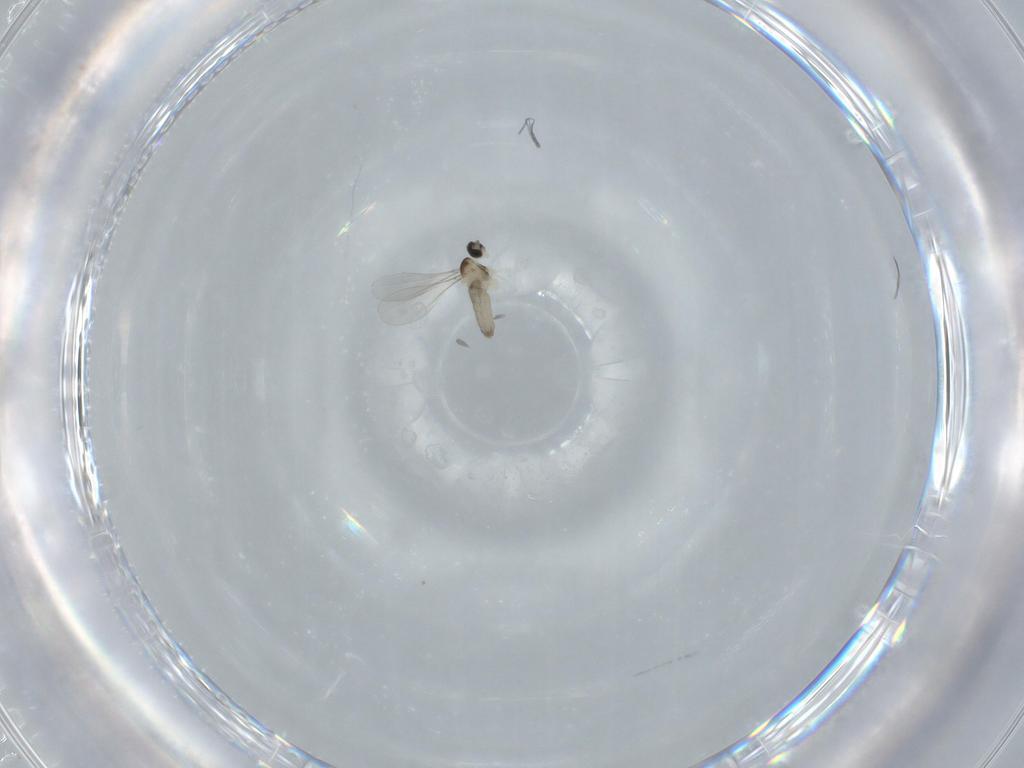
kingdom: Animalia
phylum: Arthropoda
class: Insecta
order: Diptera
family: Cecidomyiidae
